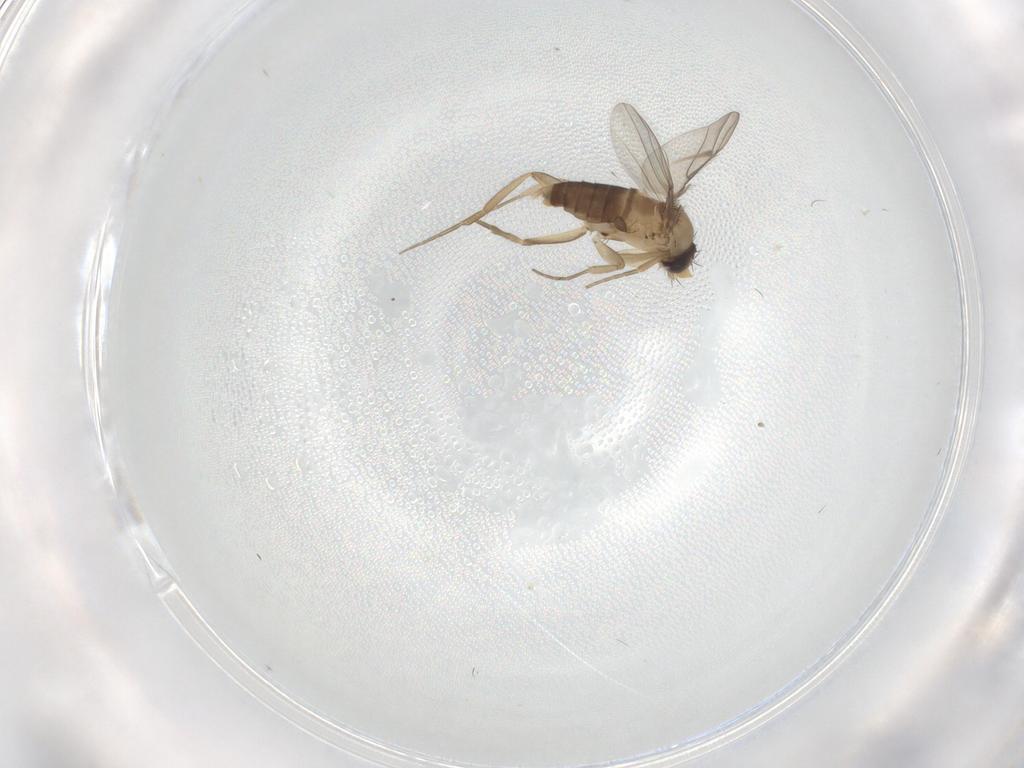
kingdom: Animalia
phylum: Arthropoda
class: Insecta
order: Diptera
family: Phoridae
